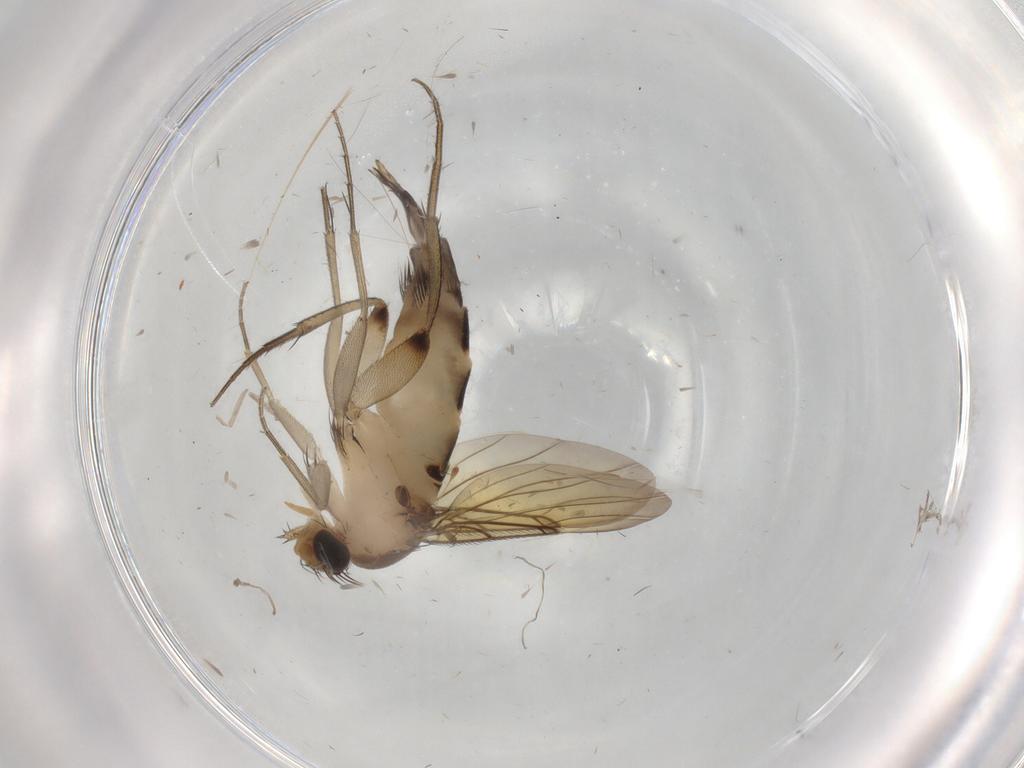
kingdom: Animalia
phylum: Arthropoda
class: Insecta
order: Diptera
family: Phoridae
